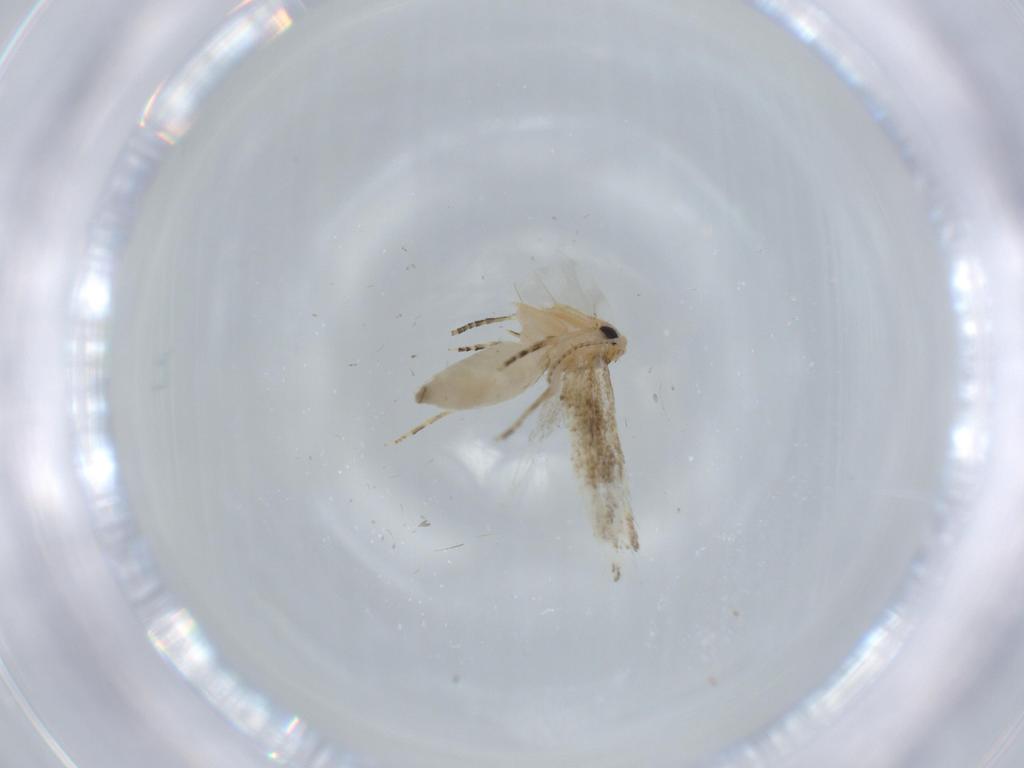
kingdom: Animalia
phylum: Arthropoda
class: Insecta
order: Lepidoptera
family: Bucculatricidae
